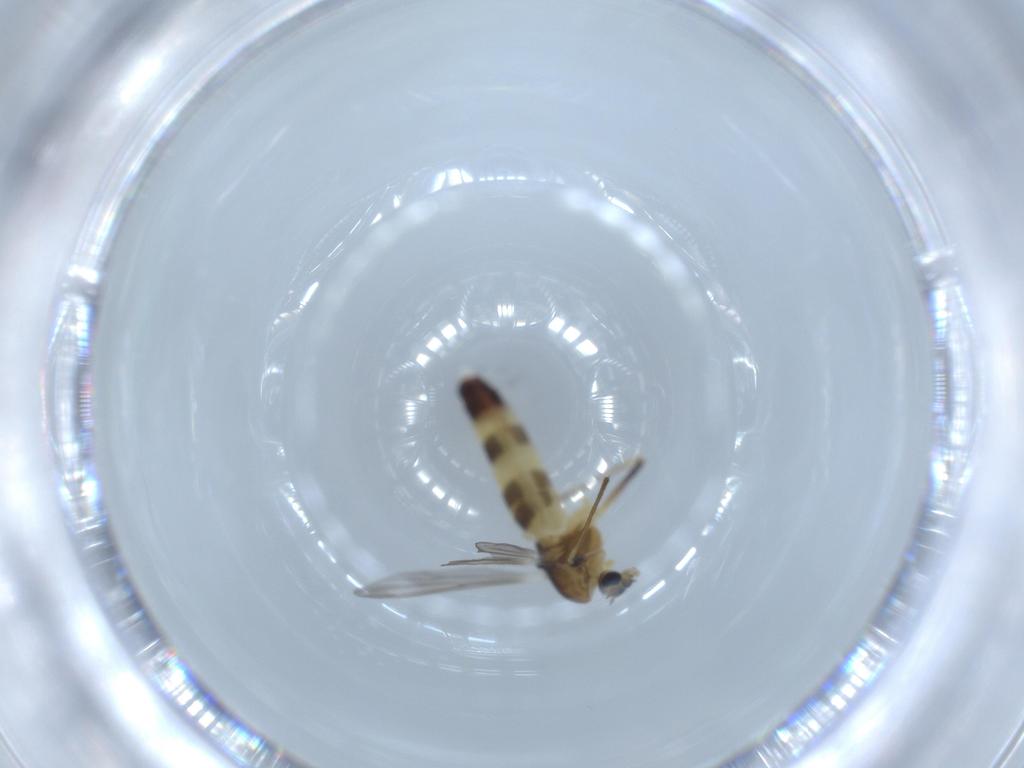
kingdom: Animalia
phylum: Arthropoda
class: Insecta
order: Diptera
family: Chironomidae
